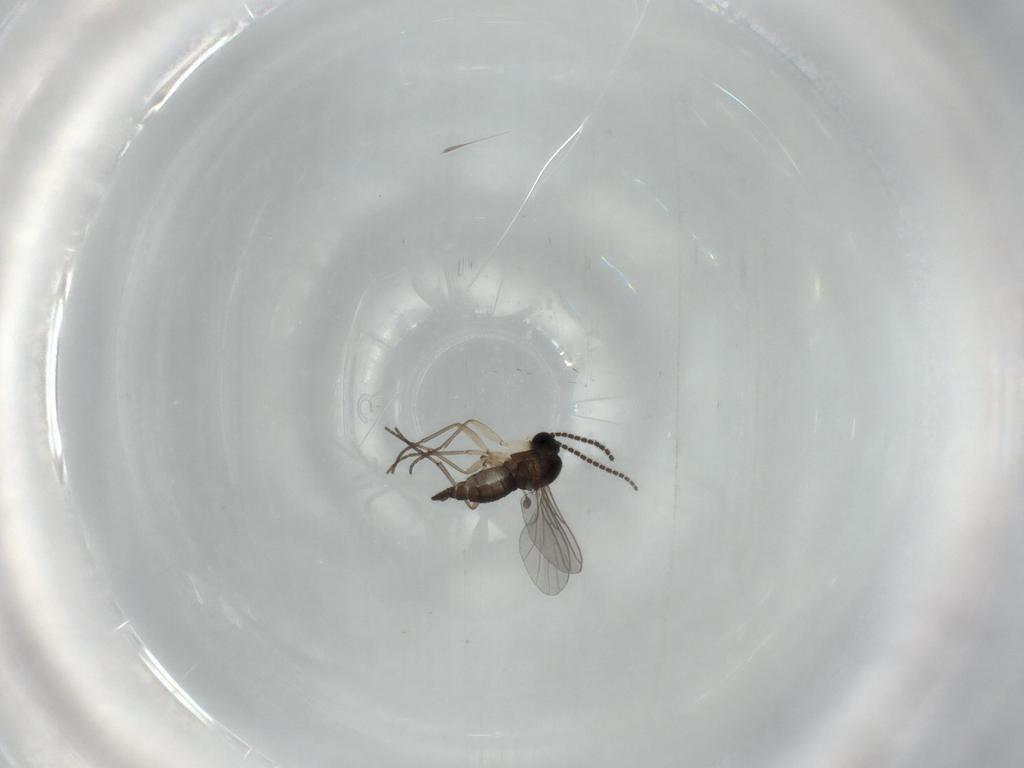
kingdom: Animalia
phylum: Arthropoda
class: Insecta
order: Diptera
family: Sciaridae
